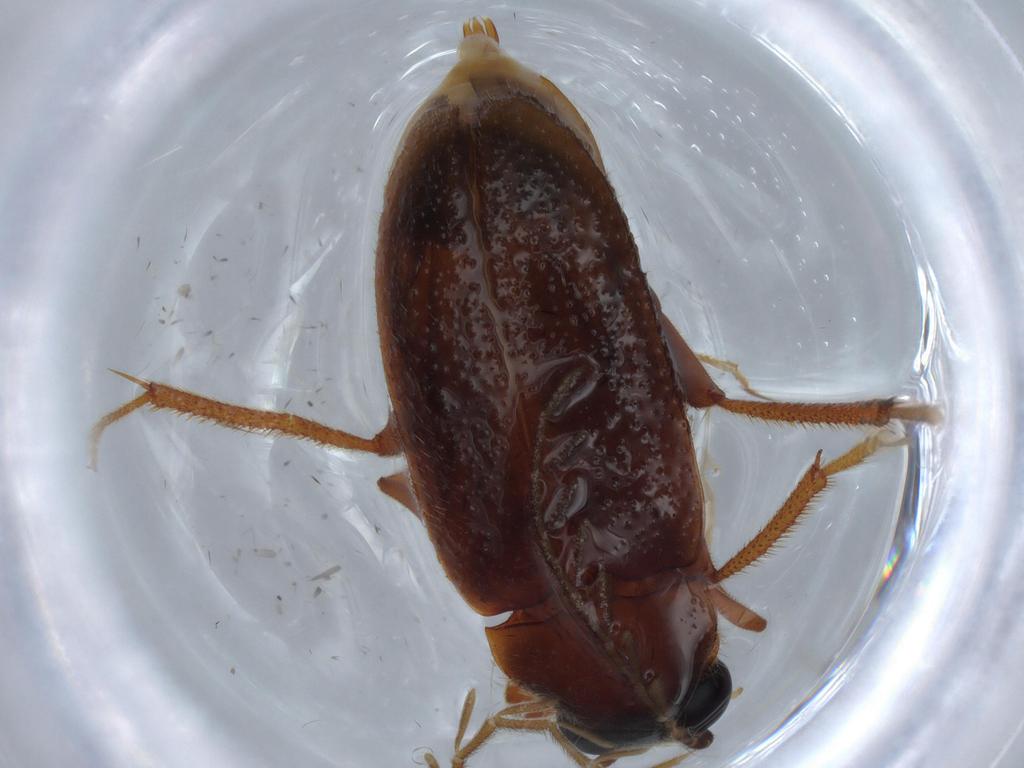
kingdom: Animalia
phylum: Arthropoda
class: Insecta
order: Coleoptera
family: Ptilodactylidae
